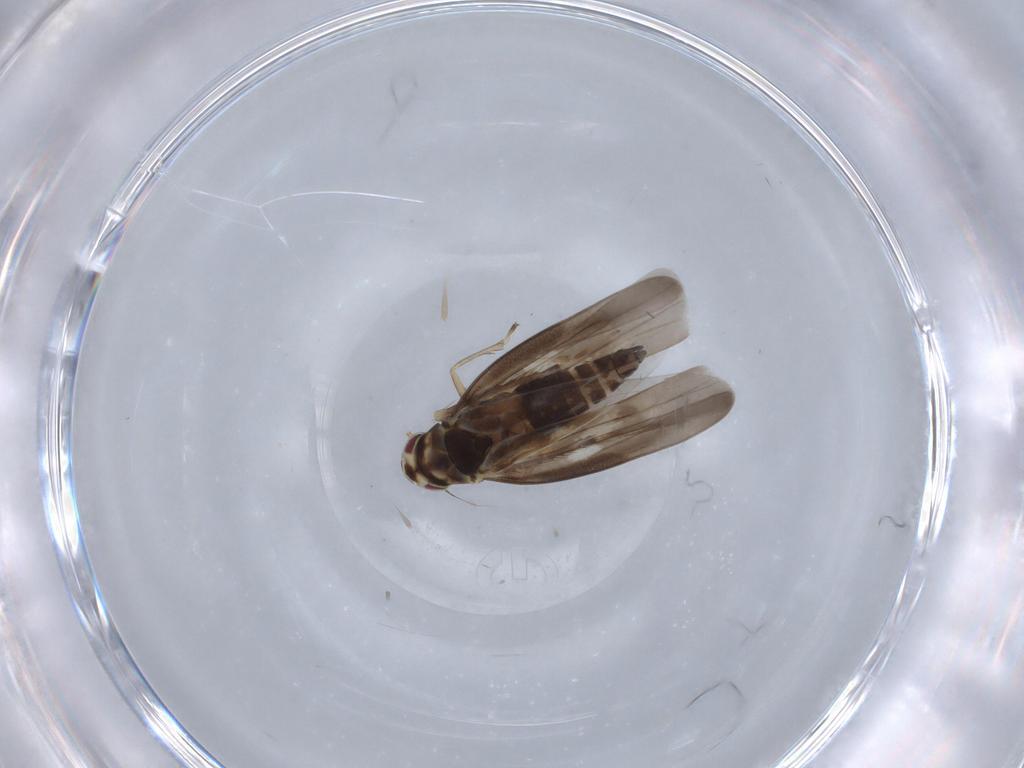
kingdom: Animalia
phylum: Arthropoda
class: Insecta
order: Hemiptera
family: Cicadellidae
